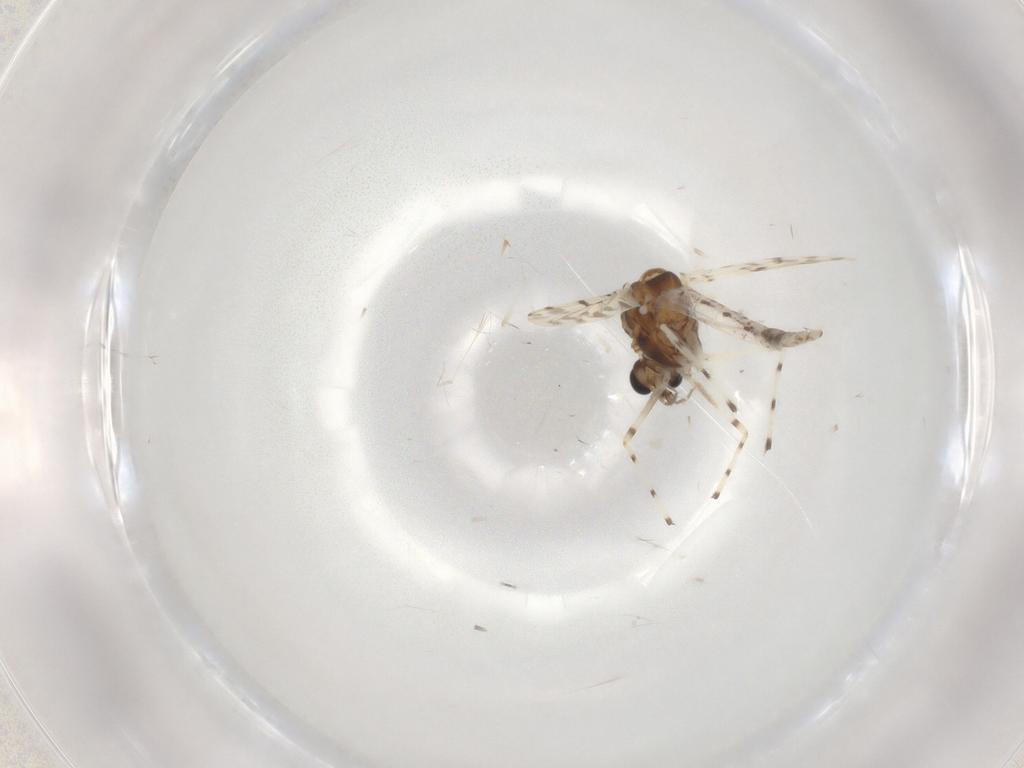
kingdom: Animalia
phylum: Arthropoda
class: Insecta
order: Diptera
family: Chironomidae
